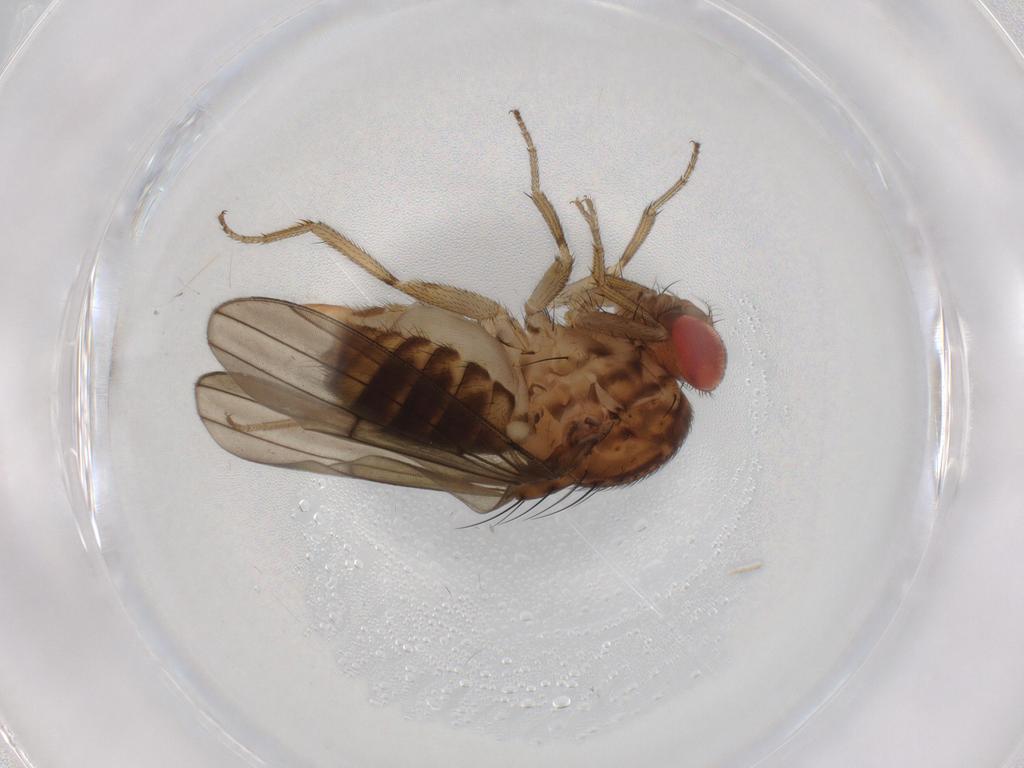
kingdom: Animalia
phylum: Arthropoda
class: Insecta
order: Diptera
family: Drosophilidae
